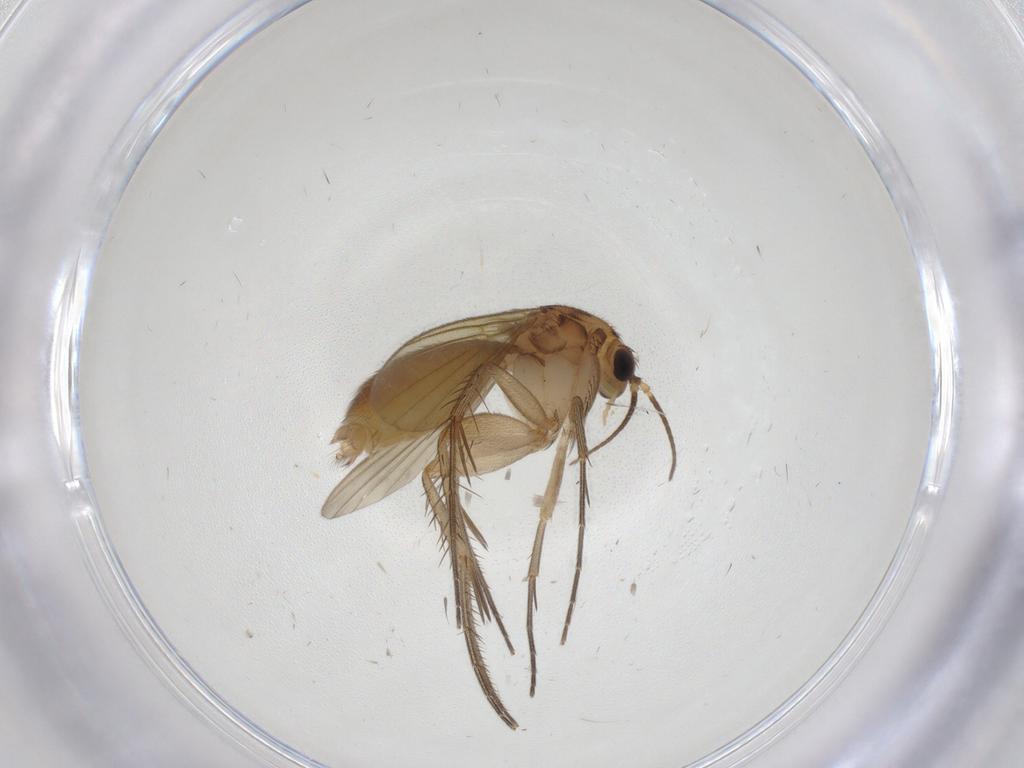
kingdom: Animalia
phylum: Arthropoda
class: Insecta
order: Diptera
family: Mycetophilidae
